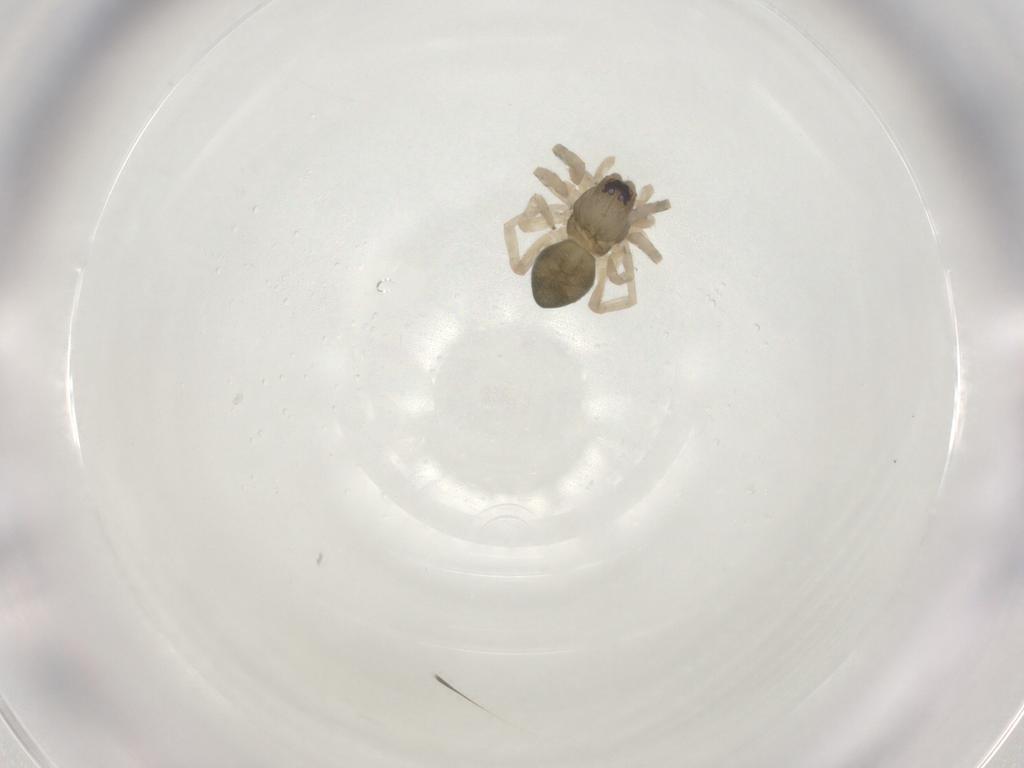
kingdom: Animalia
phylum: Arthropoda
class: Arachnida
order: Araneae
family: Trachelidae
